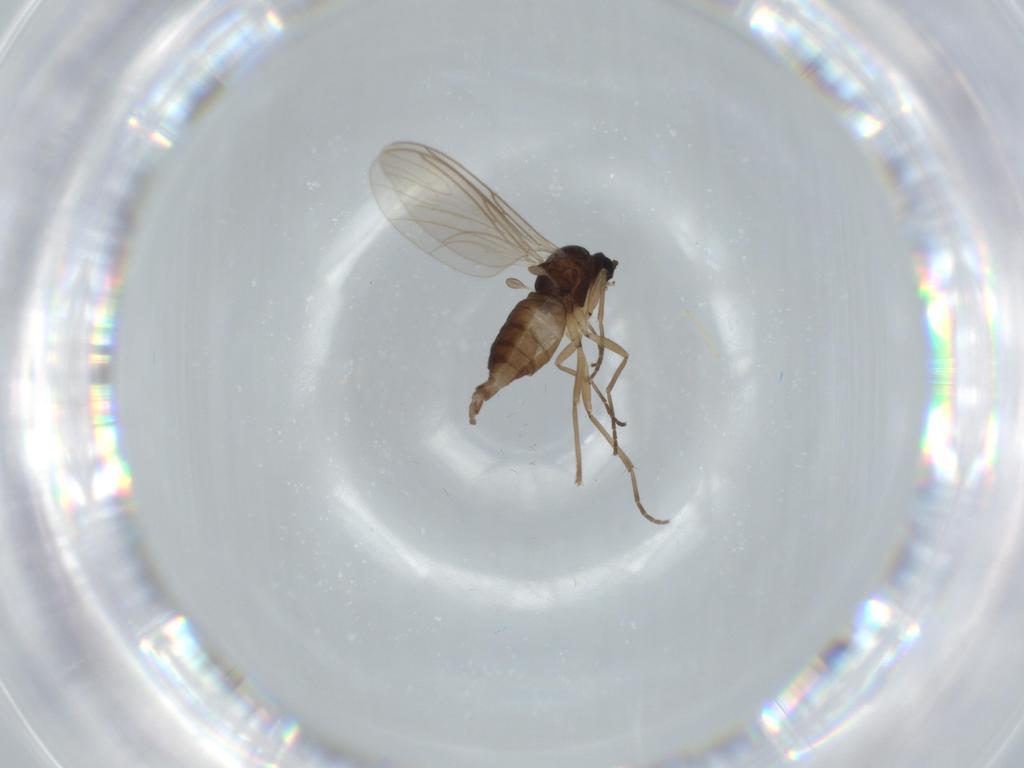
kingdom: Animalia
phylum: Arthropoda
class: Insecta
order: Diptera
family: Sciaridae
